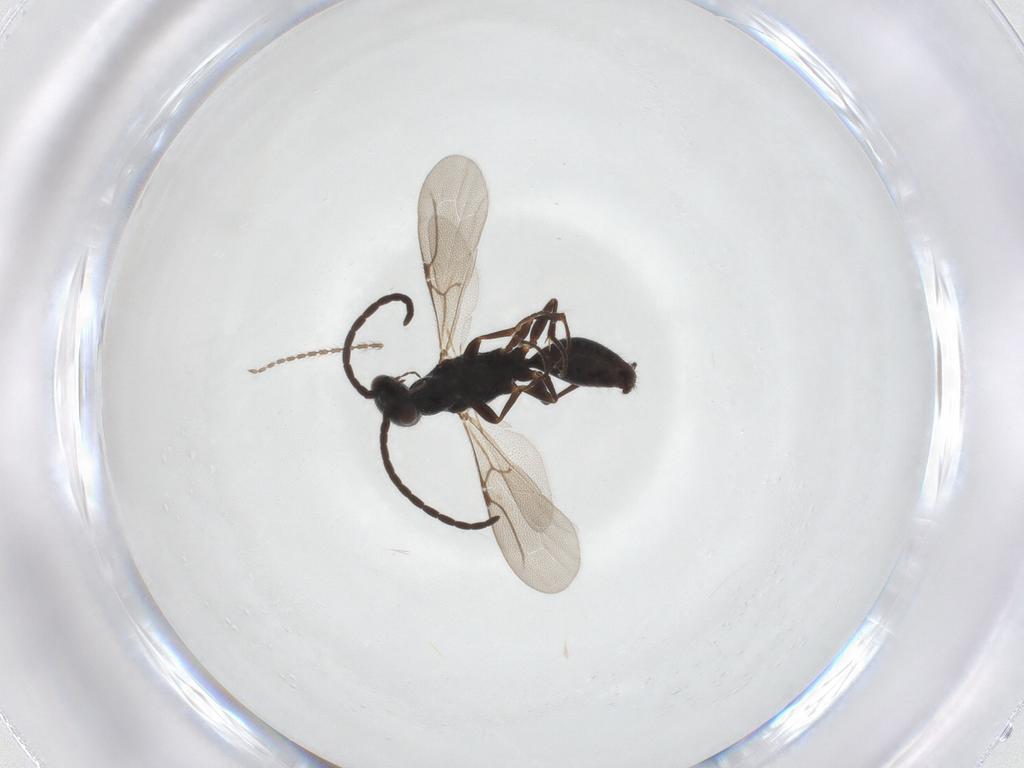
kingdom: Animalia
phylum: Arthropoda
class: Insecta
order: Hymenoptera
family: Bethylidae
